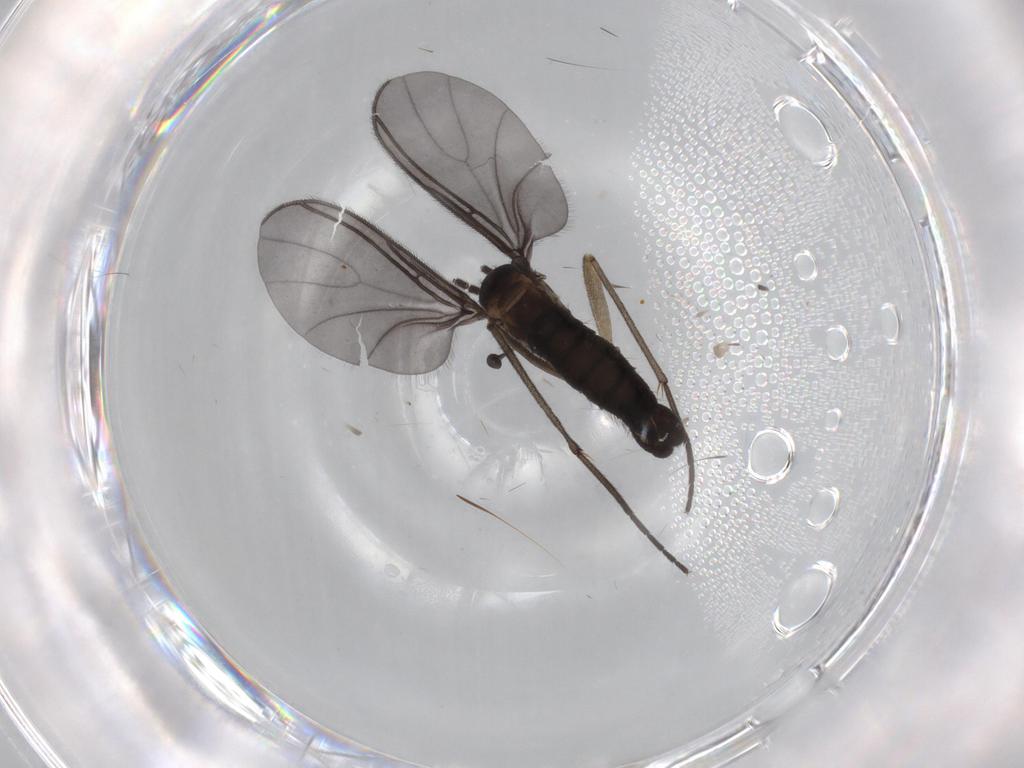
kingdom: Animalia
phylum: Arthropoda
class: Insecta
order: Diptera
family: Sciaridae
